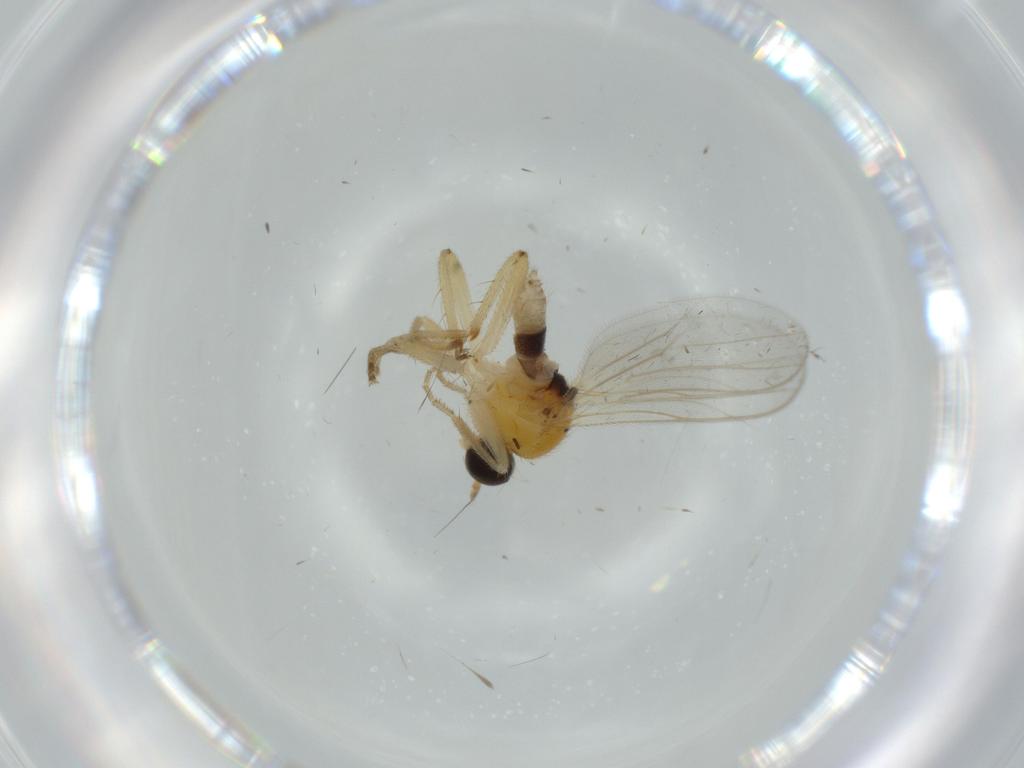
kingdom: Animalia
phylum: Arthropoda
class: Insecta
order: Diptera
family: Hybotidae
